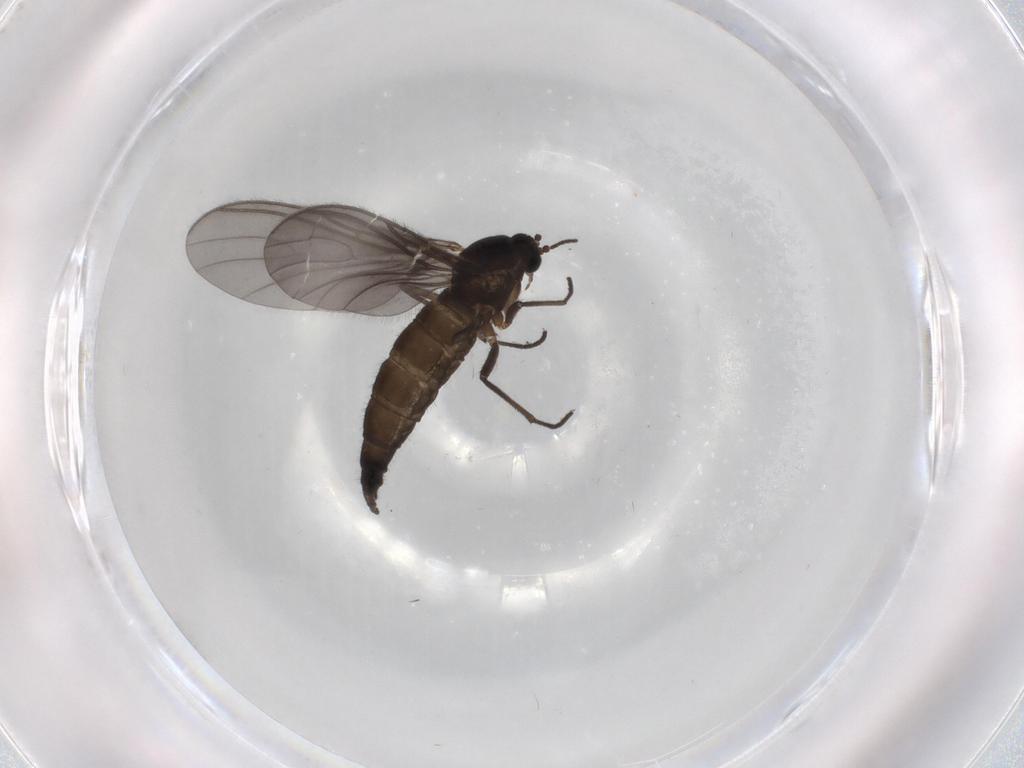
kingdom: Animalia
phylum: Arthropoda
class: Insecta
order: Diptera
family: Sciaridae
